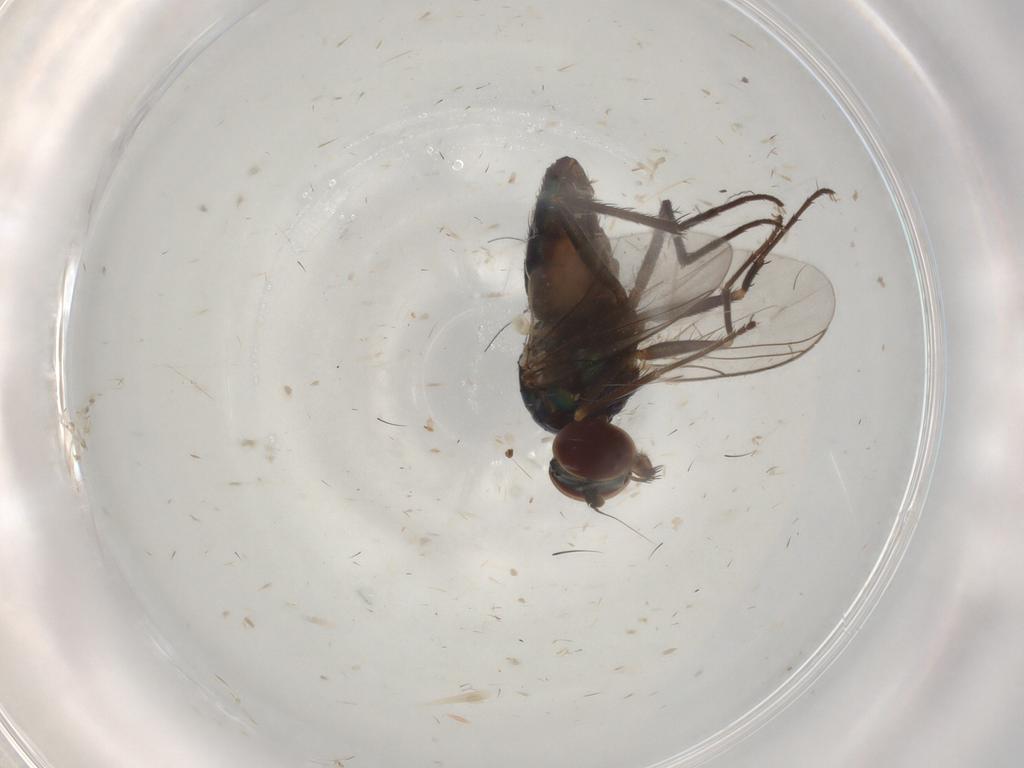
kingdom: Animalia
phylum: Arthropoda
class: Insecta
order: Diptera
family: Dolichopodidae
